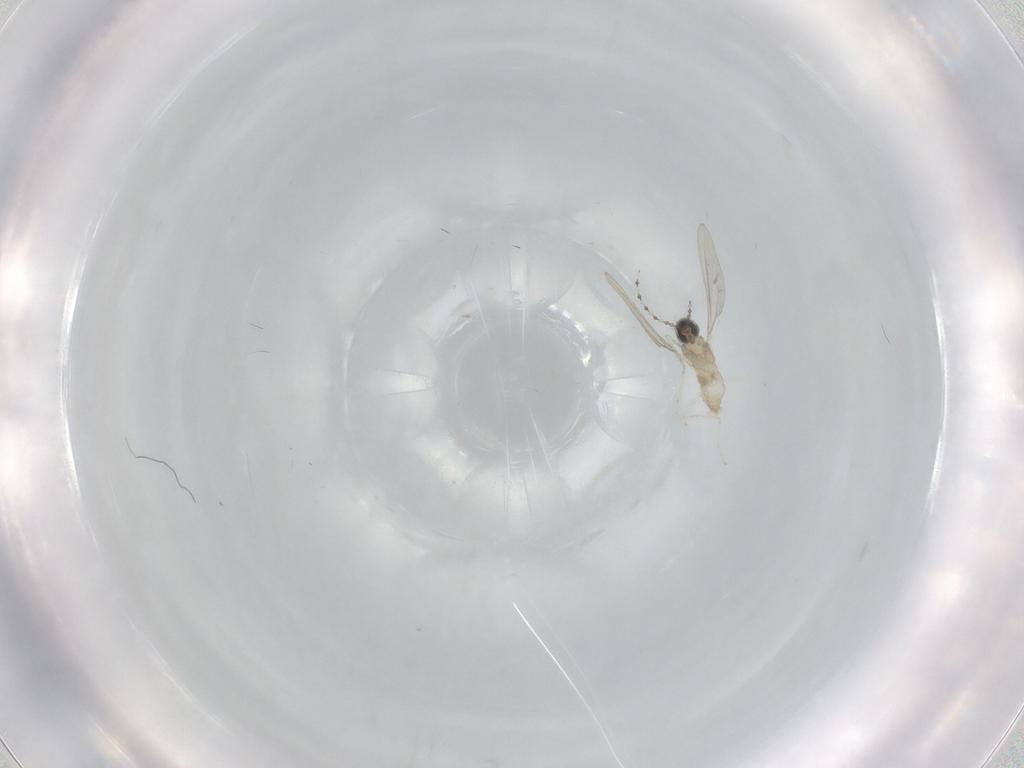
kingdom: Animalia
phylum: Arthropoda
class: Insecta
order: Diptera
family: Cecidomyiidae
